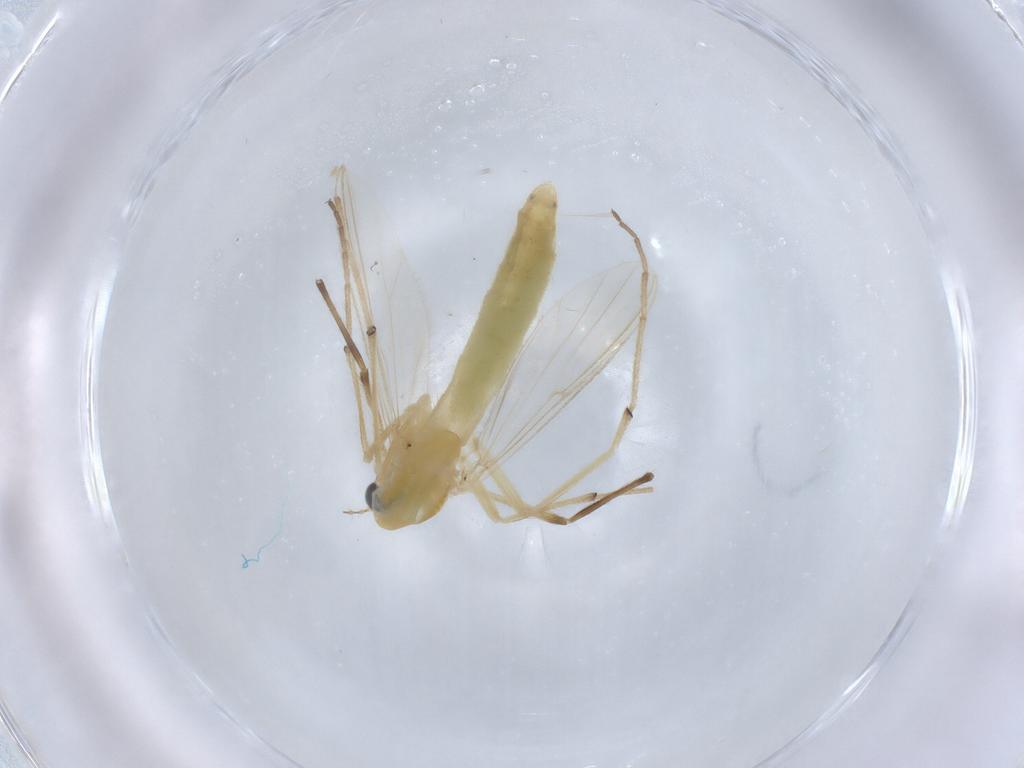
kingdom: Animalia
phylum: Arthropoda
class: Insecta
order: Diptera
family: Chironomidae
